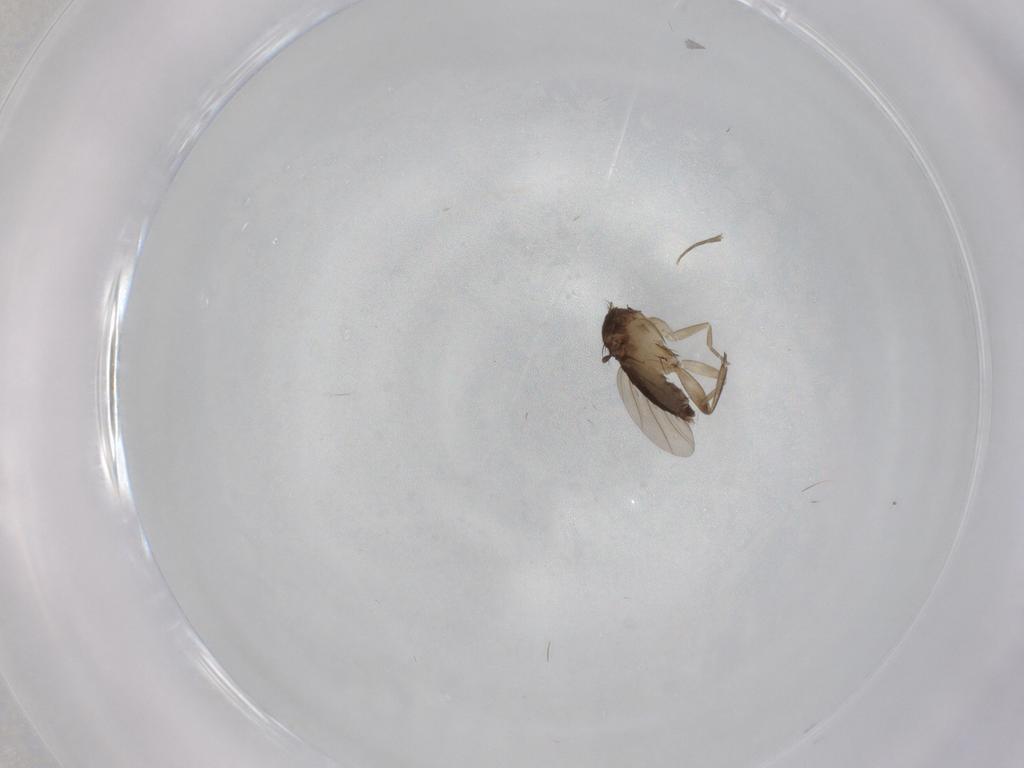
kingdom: Animalia
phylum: Arthropoda
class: Insecta
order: Diptera
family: Phoridae
